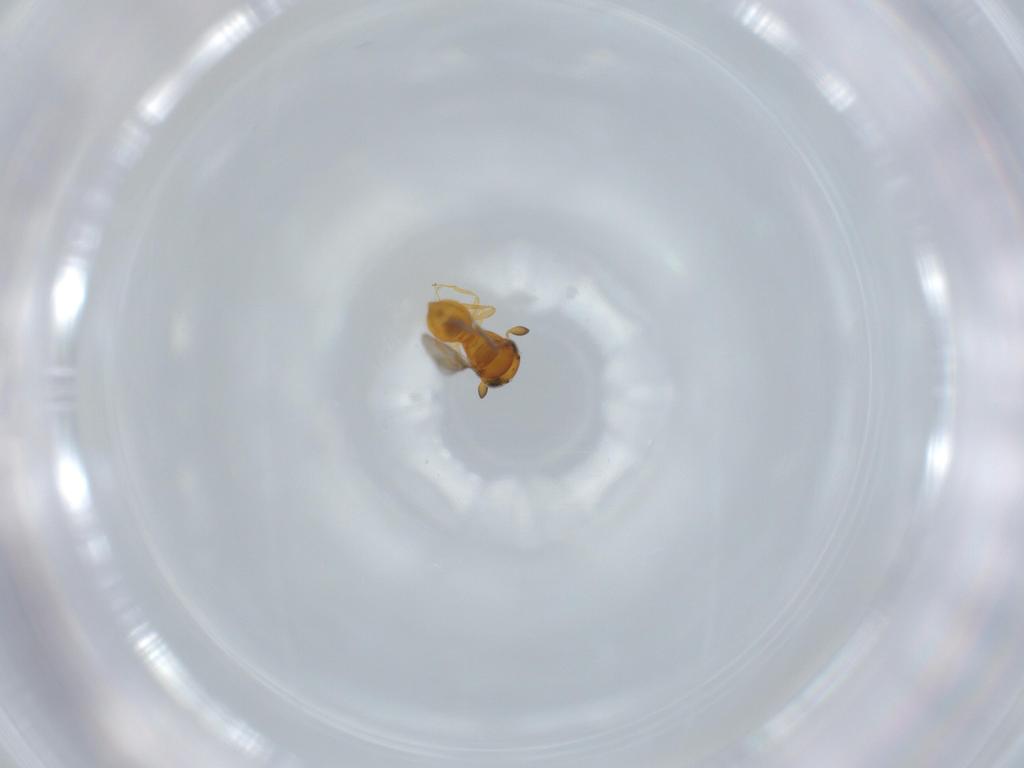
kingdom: Animalia
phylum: Arthropoda
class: Insecta
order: Hymenoptera
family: Scelionidae
